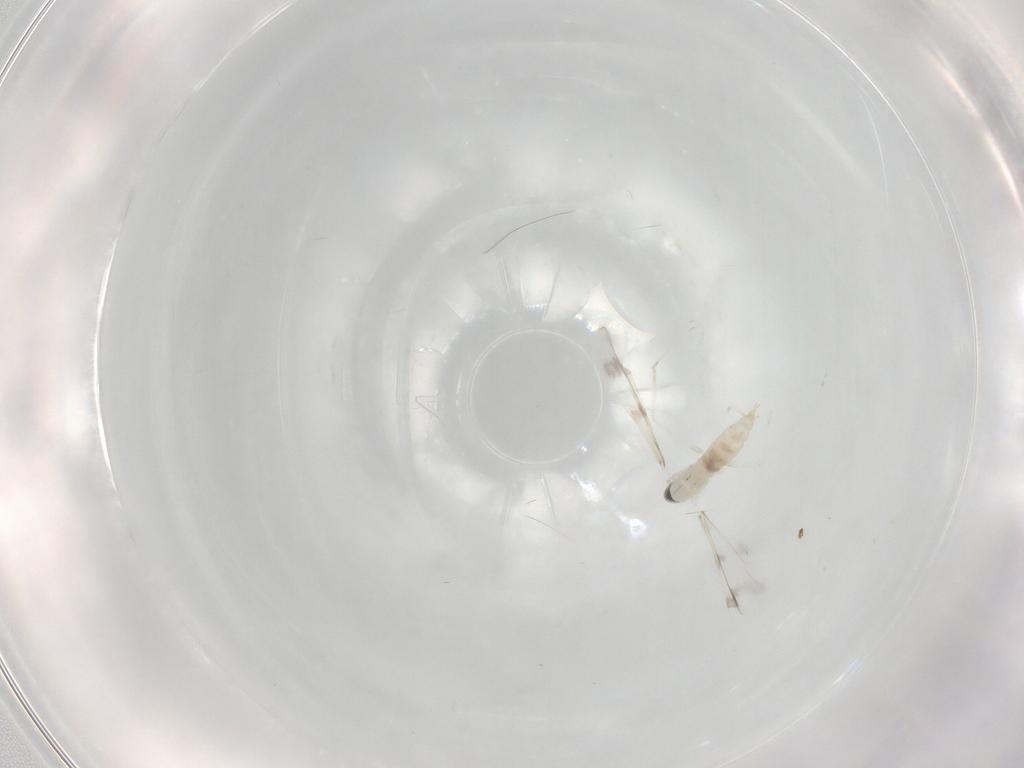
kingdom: Animalia
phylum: Arthropoda
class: Insecta
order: Diptera
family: Cecidomyiidae
